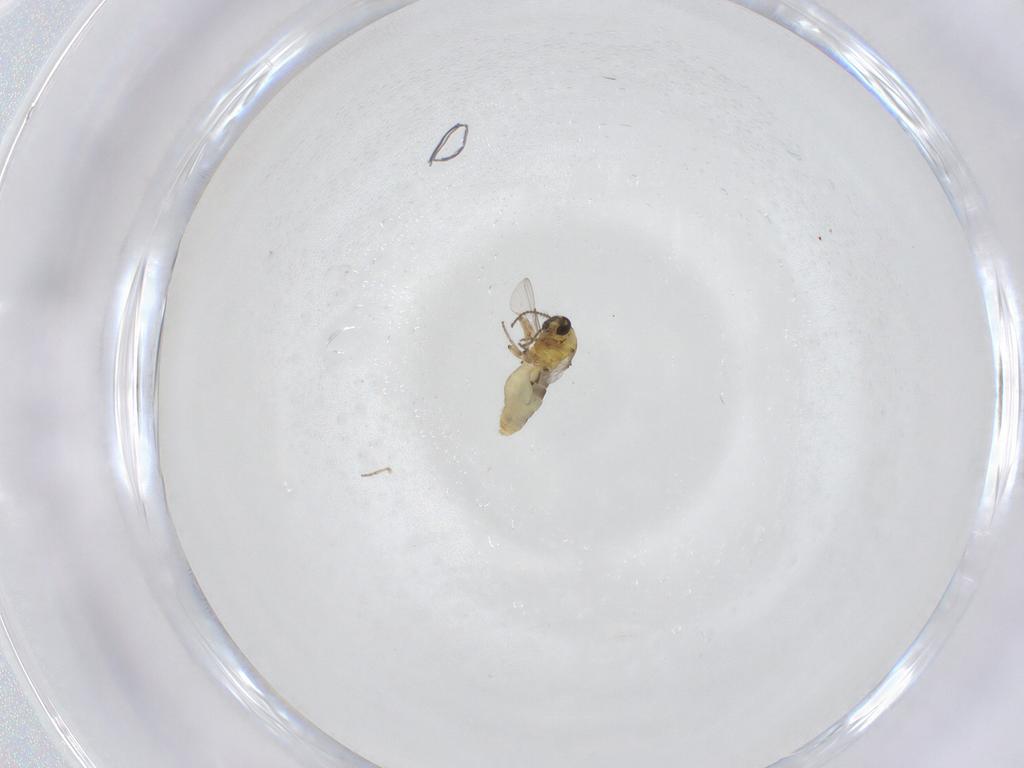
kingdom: Animalia
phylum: Arthropoda
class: Insecta
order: Diptera
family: Ceratopogonidae
